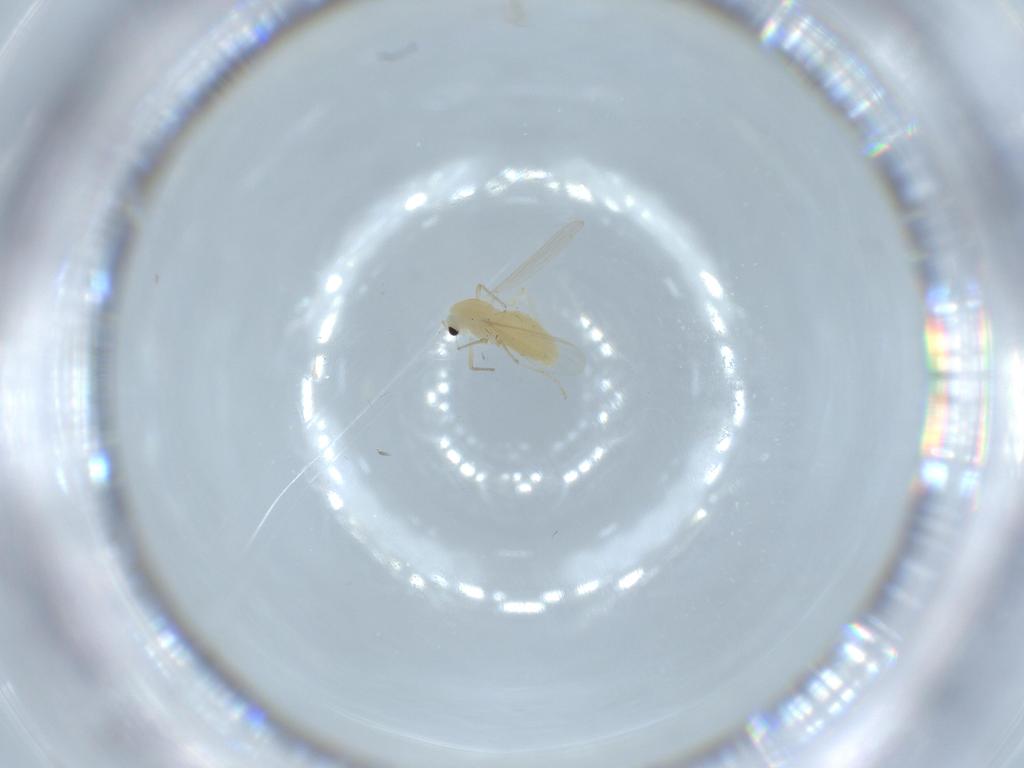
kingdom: Animalia
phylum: Arthropoda
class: Insecta
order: Diptera
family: Chironomidae
